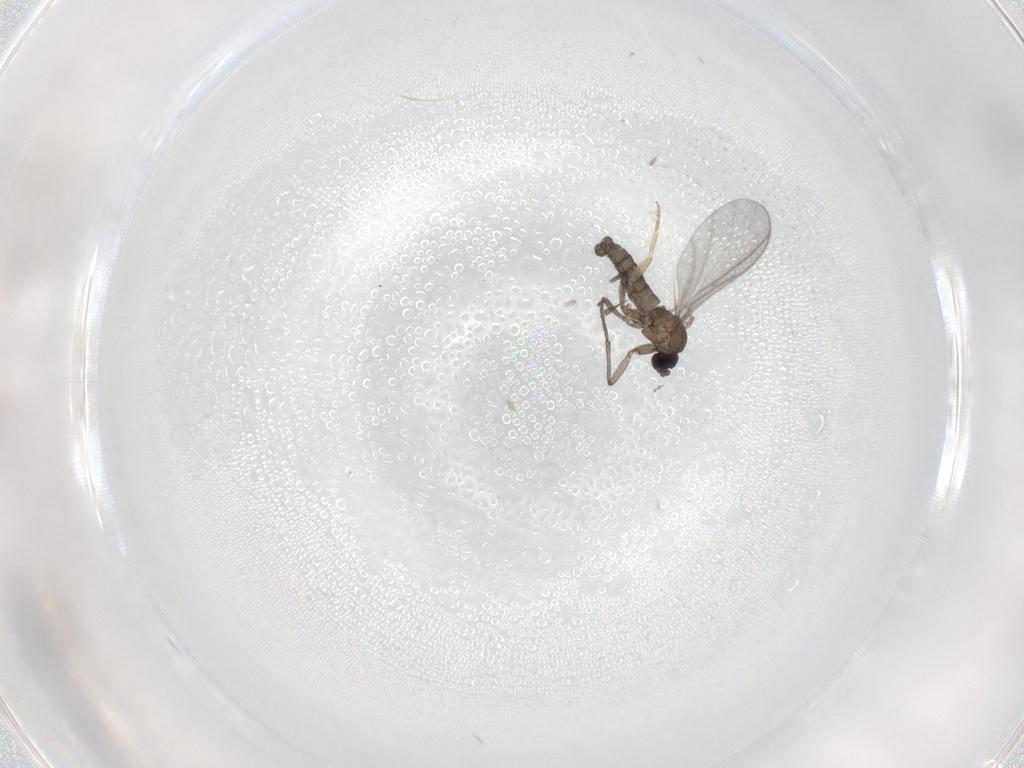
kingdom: Animalia
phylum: Arthropoda
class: Insecta
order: Diptera
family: Sciaridae
